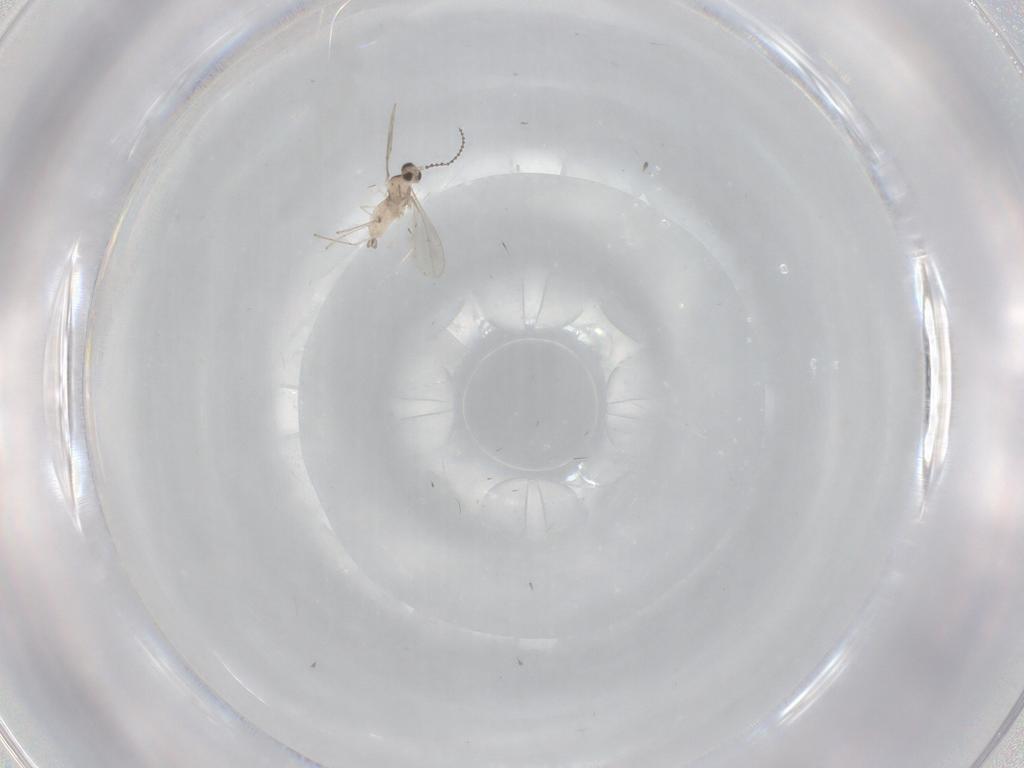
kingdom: Animalia
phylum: Arthropoda
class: Insecta
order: Diptera
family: Cecidomyiidae
